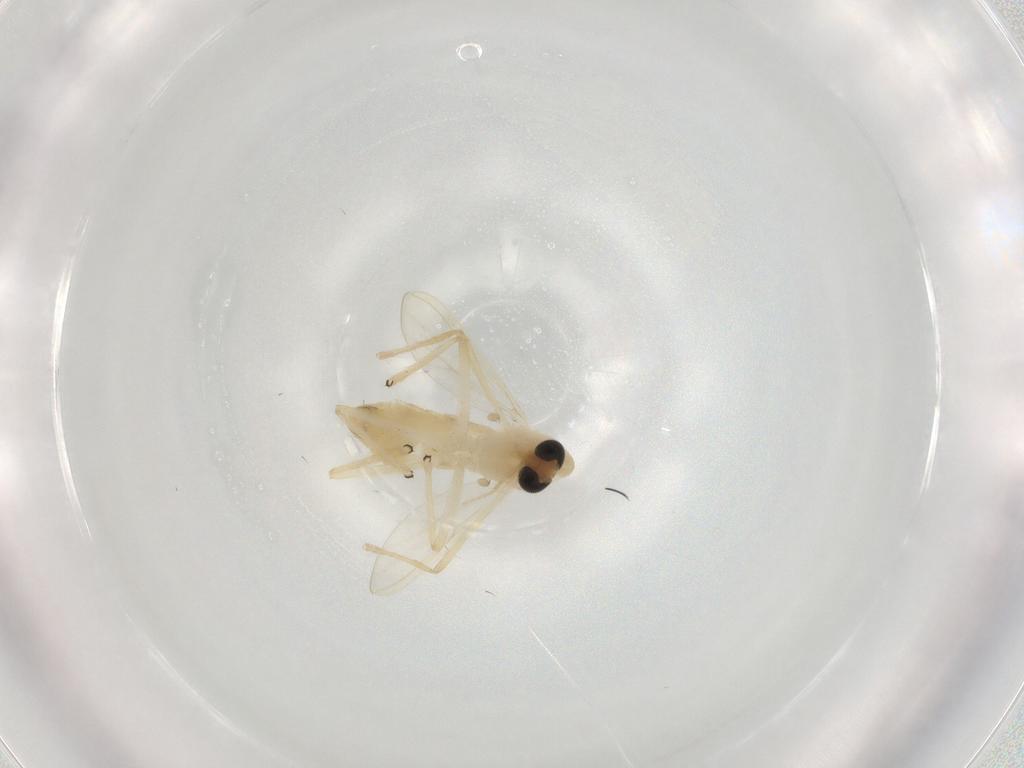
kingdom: Animalia
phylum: Arthropoda
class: Insecta
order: Diptera
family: Chironomidae
